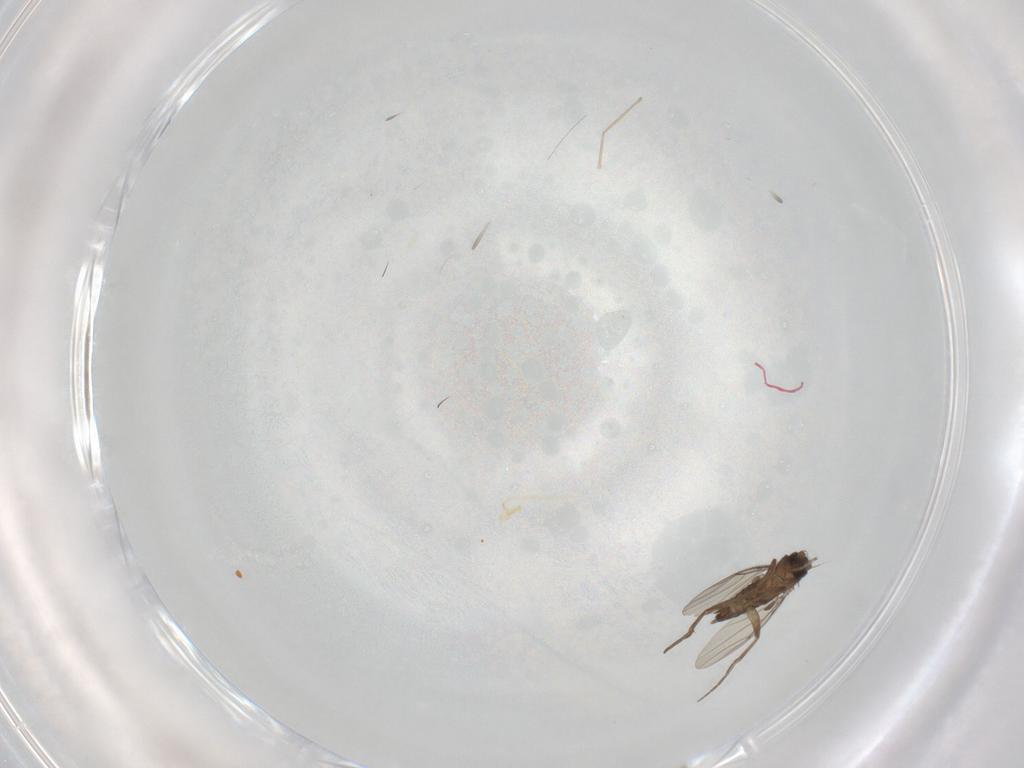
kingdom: Animalia
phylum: Arthropoda
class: Insecta
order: Diptera
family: Phoridae
